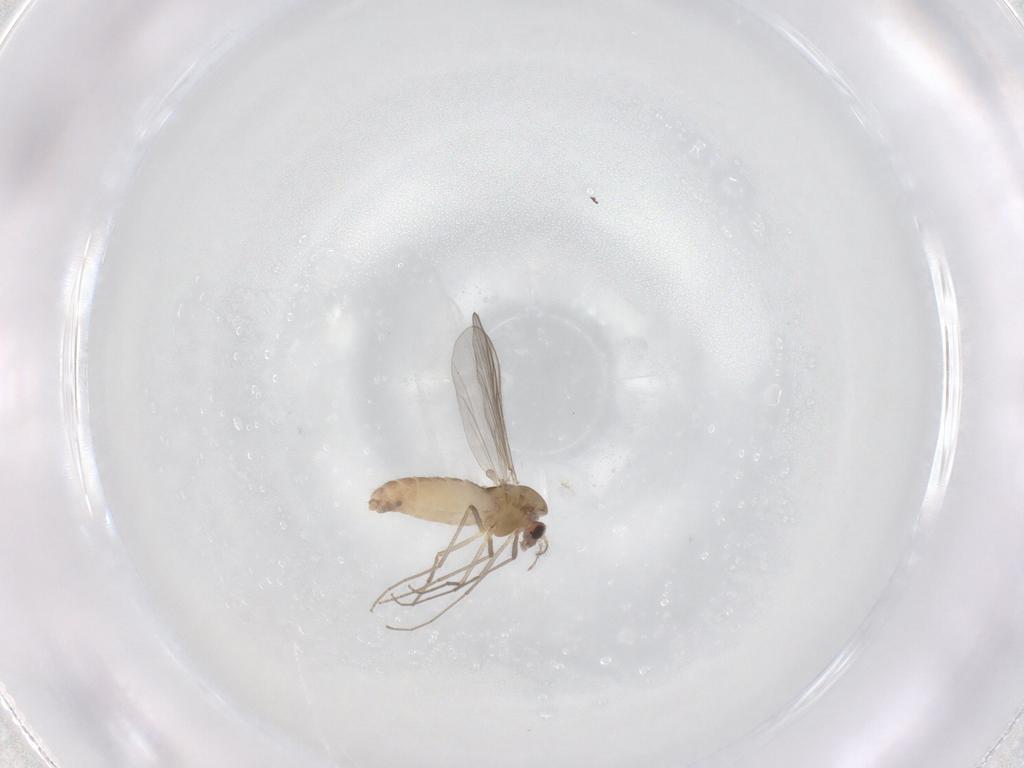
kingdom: Animalia
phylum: Arthropoda
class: Insecta
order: Diptera
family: Chironomidae
